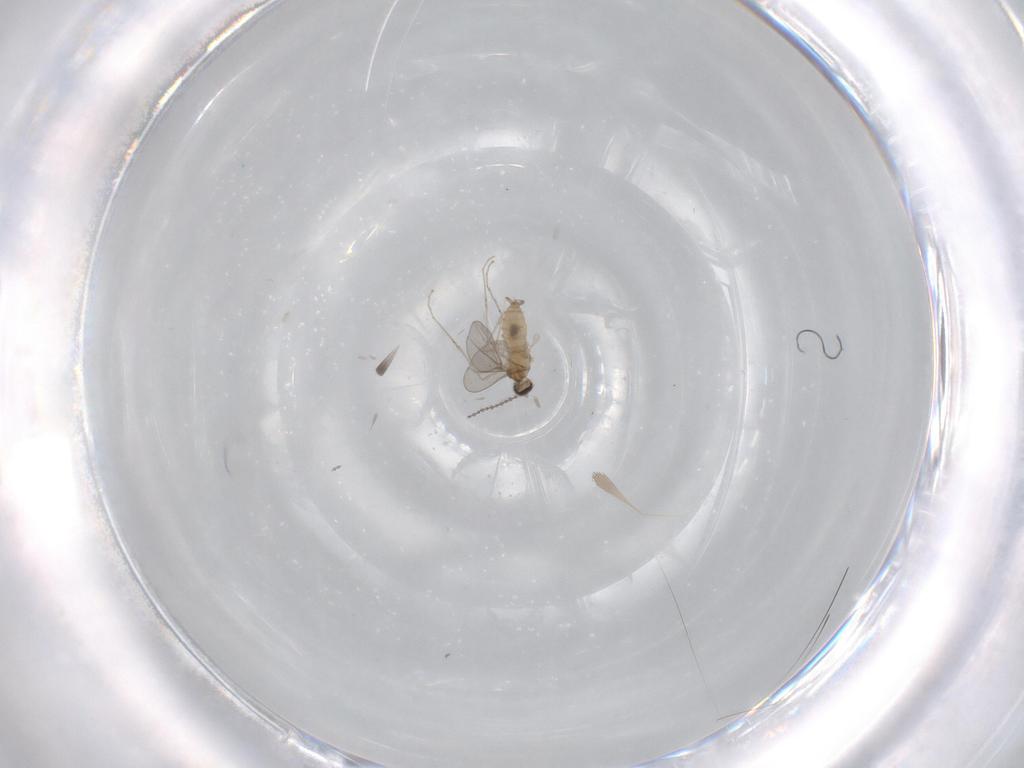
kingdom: Animalia
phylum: Arthropoda
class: Insecta
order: Diptera
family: Cecidomyiidae
